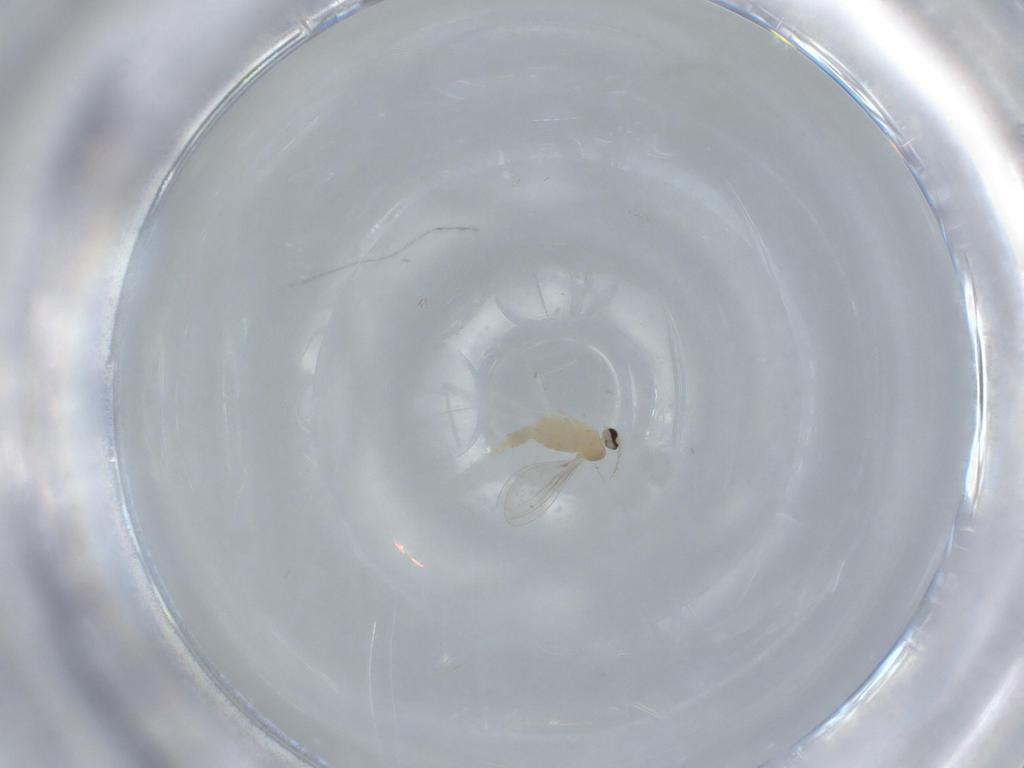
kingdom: Animalia
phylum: Arthropoda
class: Insecta
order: Diptera
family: Cecidomyiidae
